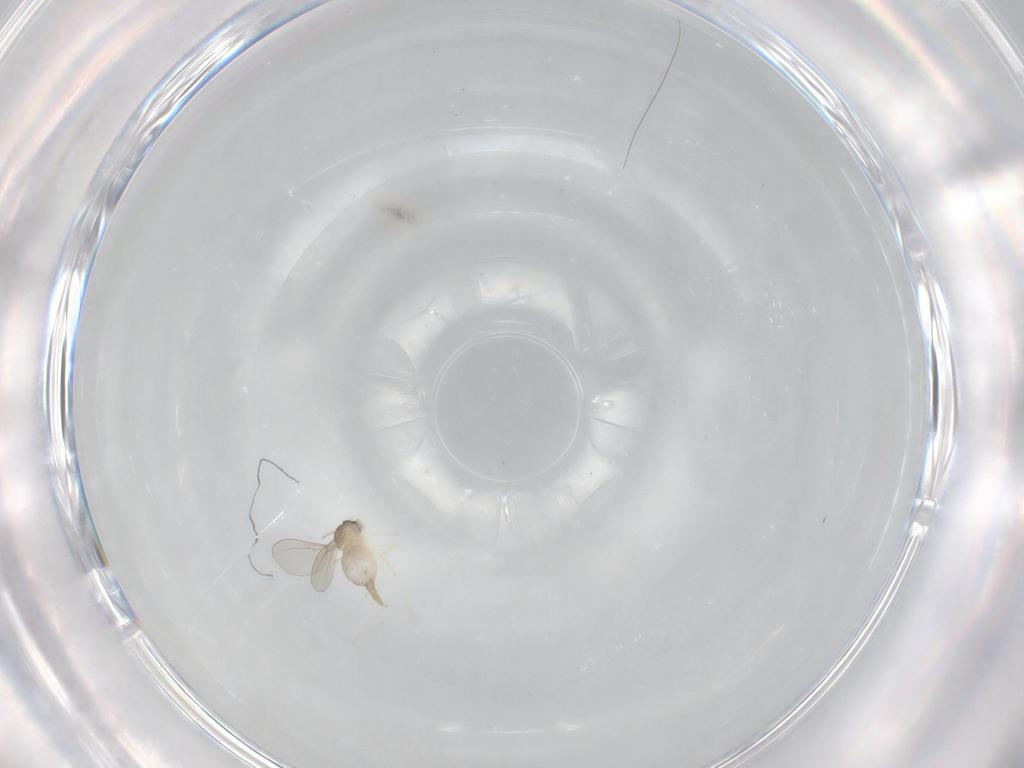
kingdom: Animalia
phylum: Arthropoda
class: Insecta
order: Diptera
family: Cecidomyiidae
